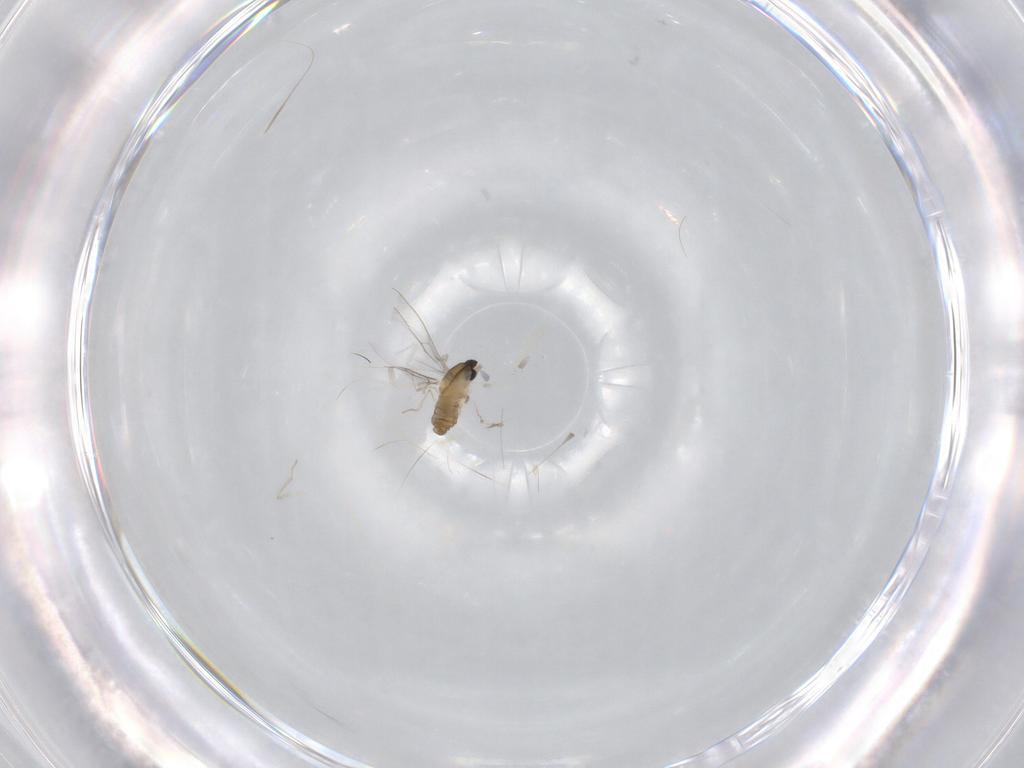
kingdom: Animalia
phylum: Arthropoda
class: Insecta
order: Diptera
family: Cecidomyiidae
